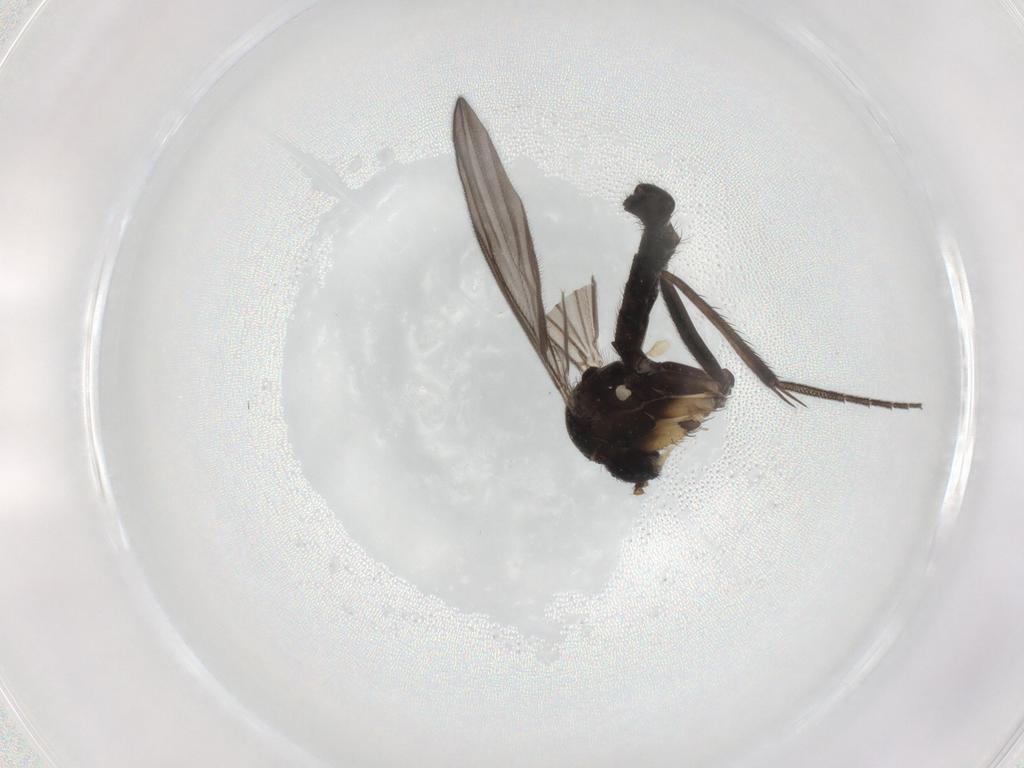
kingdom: Animalia
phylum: Arthropoda
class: Insecta
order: Diptera
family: Mycetophilidae
